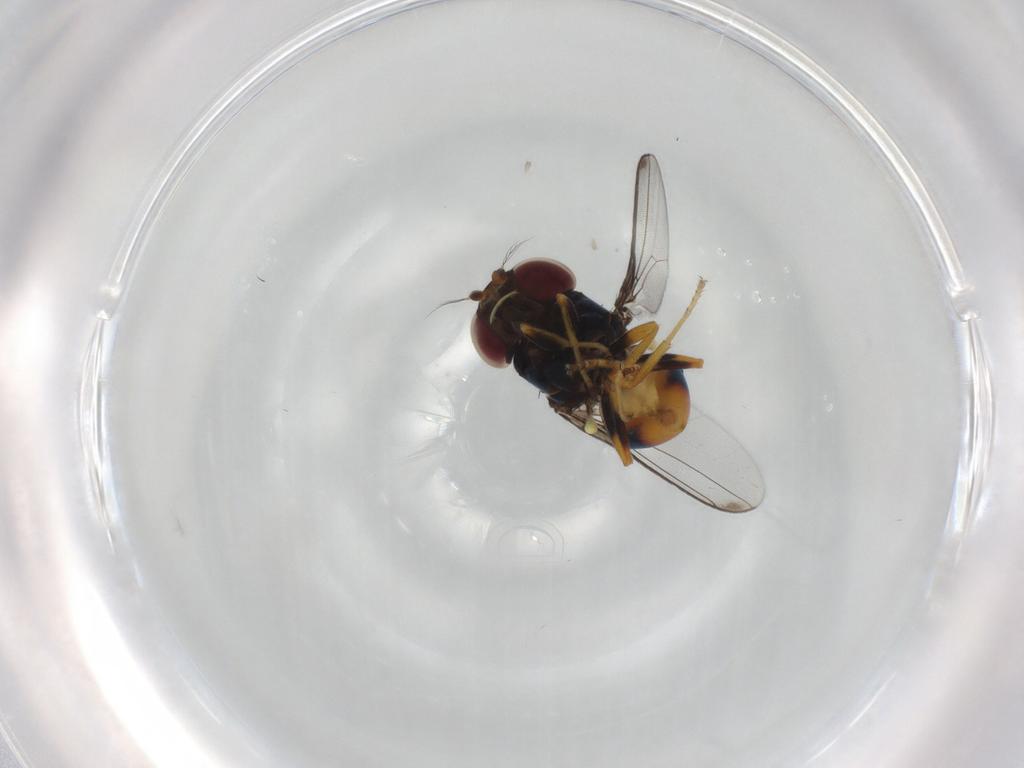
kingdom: Animalia
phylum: Arthropoda
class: Insecta
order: Diptera
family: Chloropidae
